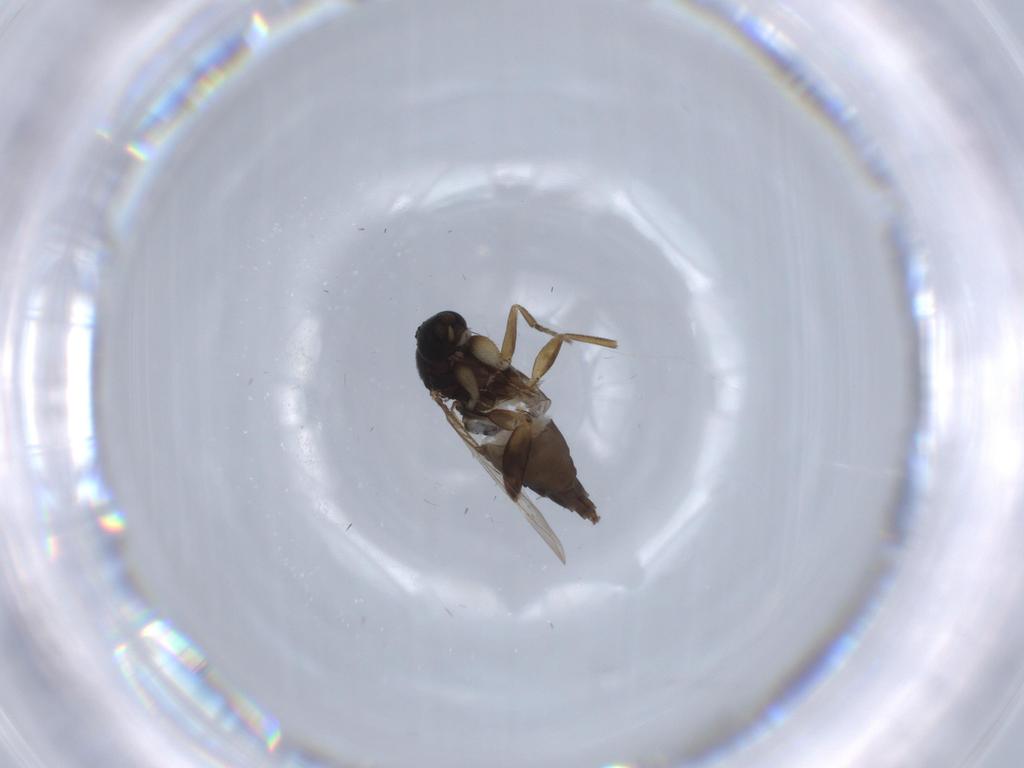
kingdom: Animalia
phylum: Arthropoda
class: Insecta
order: Diptera
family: Phoridae
